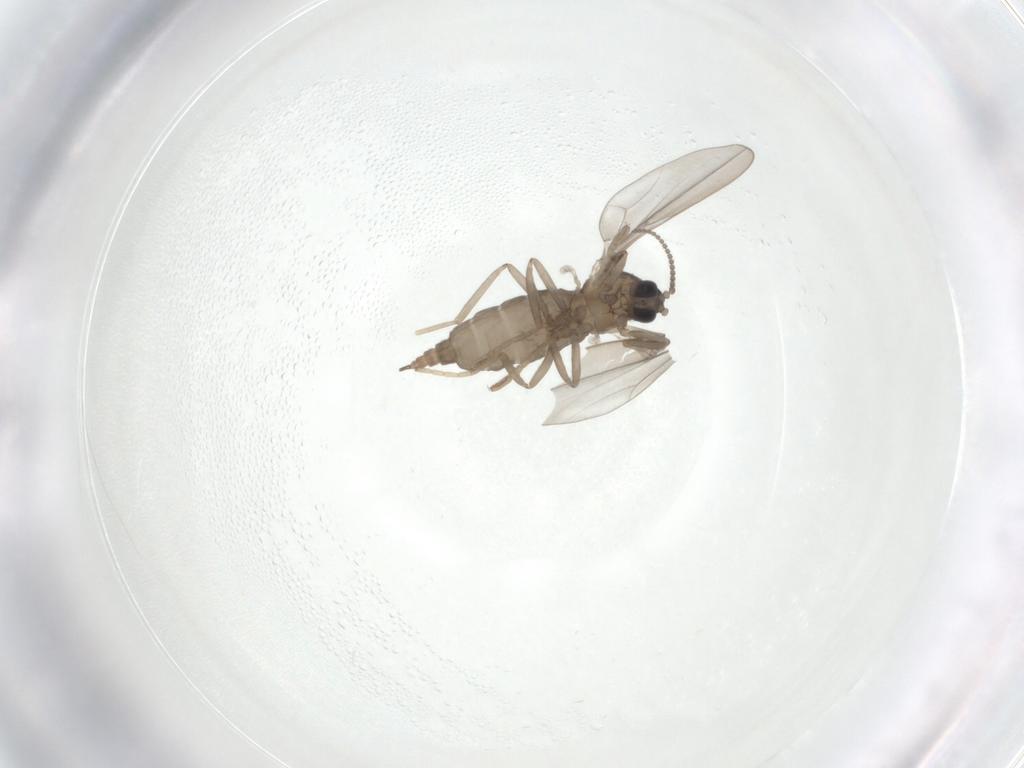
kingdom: Animalia
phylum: Arthropoda
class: Insecta
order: Diptera
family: Cecidomyiidae
